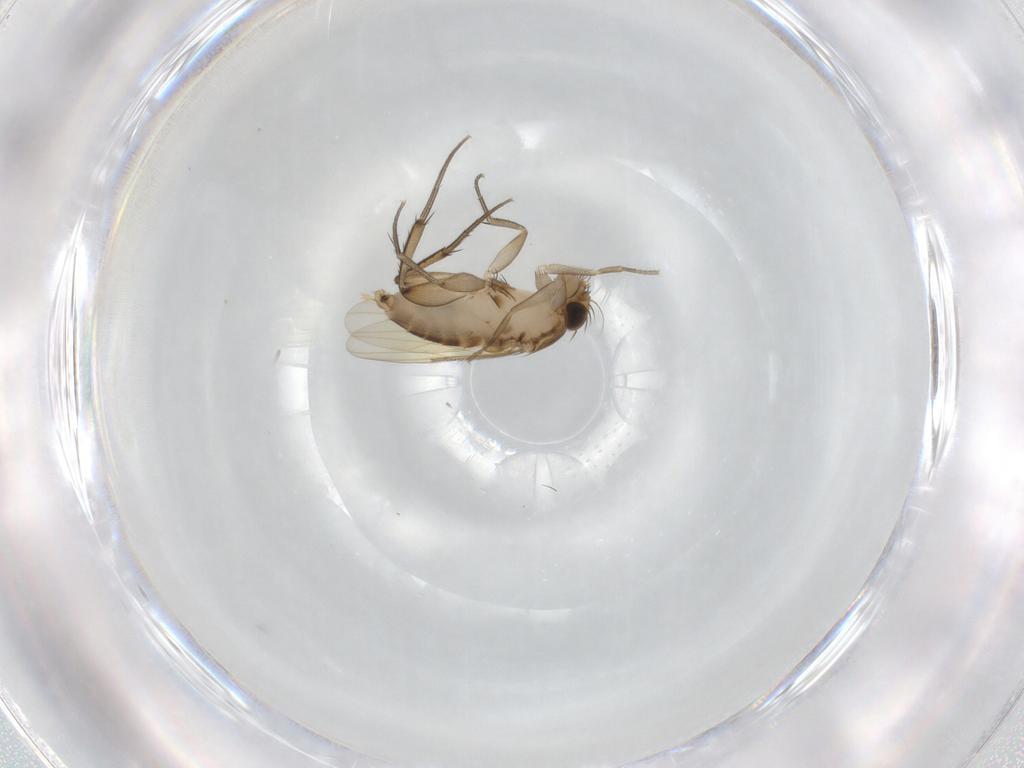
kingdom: Animalia
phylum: Arthropoda
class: Insecta
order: Diptera
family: Phoridae
